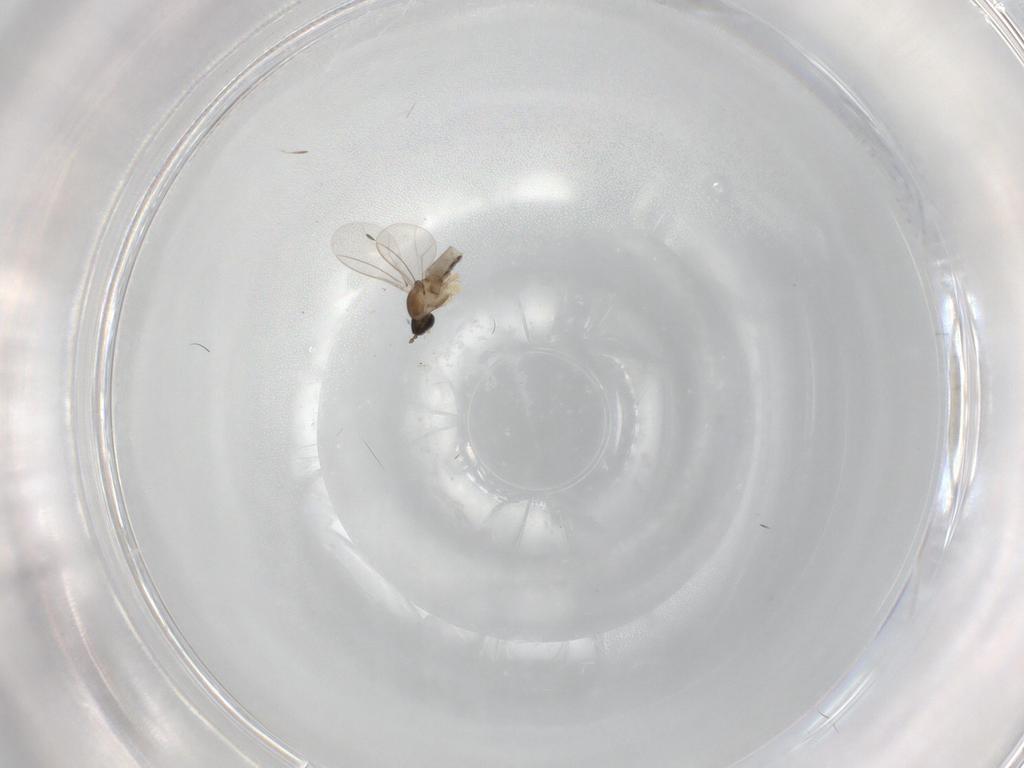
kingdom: Animalia
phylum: Arthropoda
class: Insecta
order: Diptera
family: Cecidomyiidae
